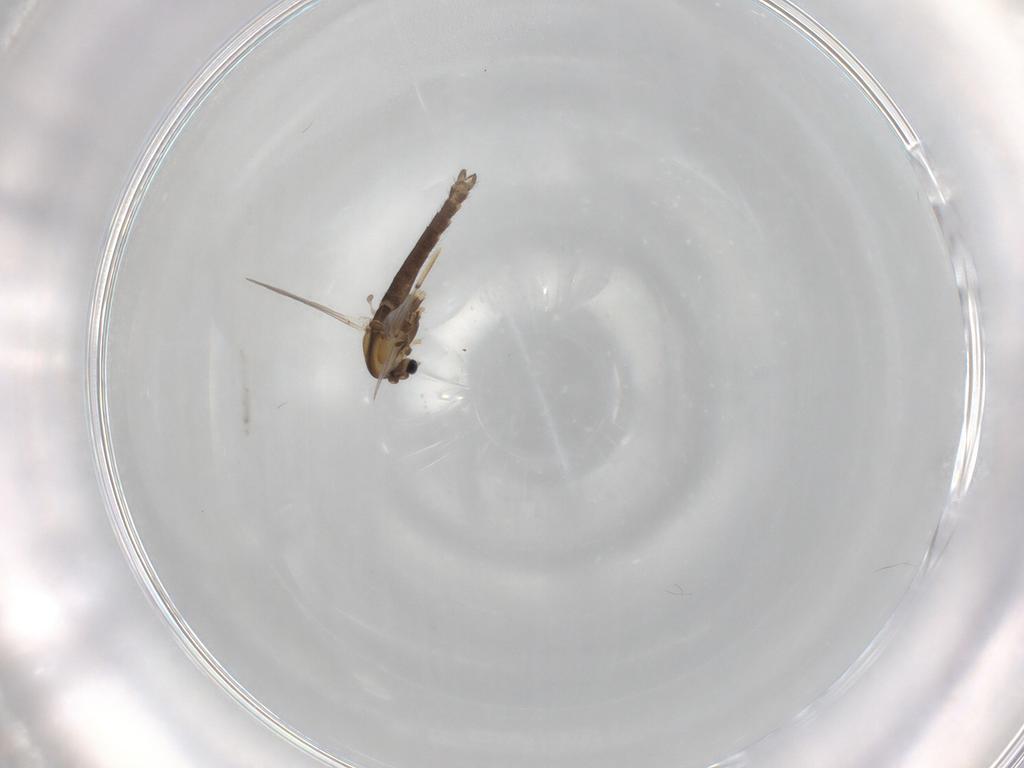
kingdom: Animalia
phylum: Arthropoda
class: Insecta
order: Diptera
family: Chironomidae
